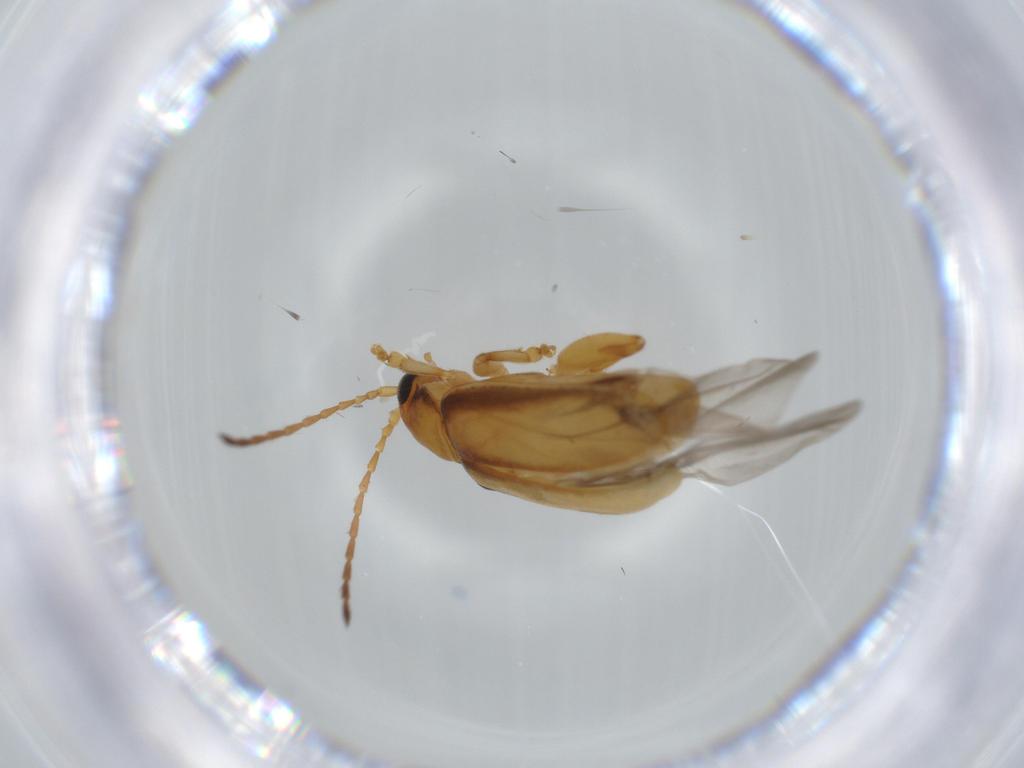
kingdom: Animalia
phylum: Arthropoda
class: Insecta
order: Coleoptera
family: Chrysomelidae
